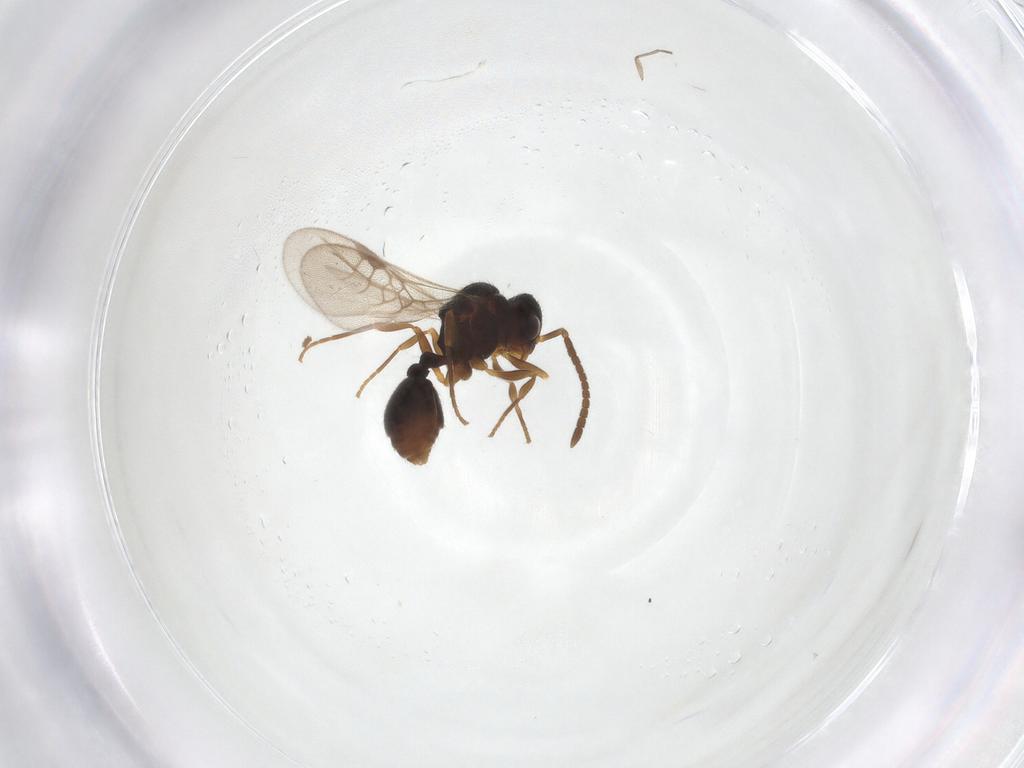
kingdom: Animalia
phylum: Arthropoda
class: Insecta
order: Hymenoptera
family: Formicidae
